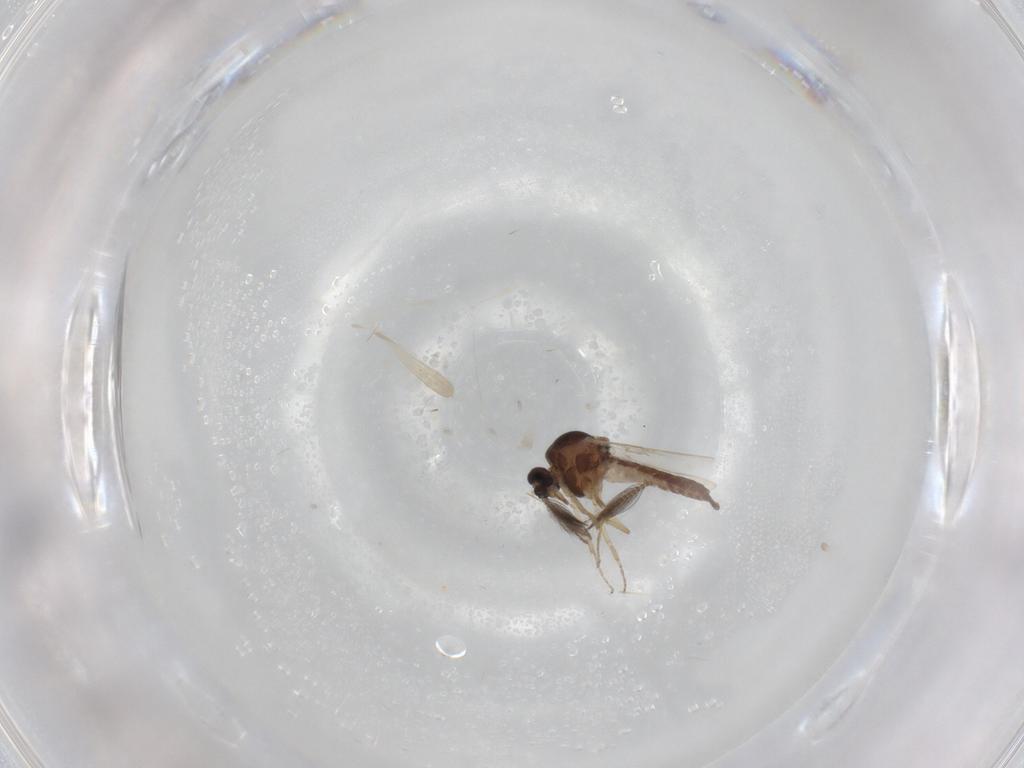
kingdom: Animalia
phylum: Arthropoda
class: Insecta
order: Diptera
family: Ceratopogonidae
